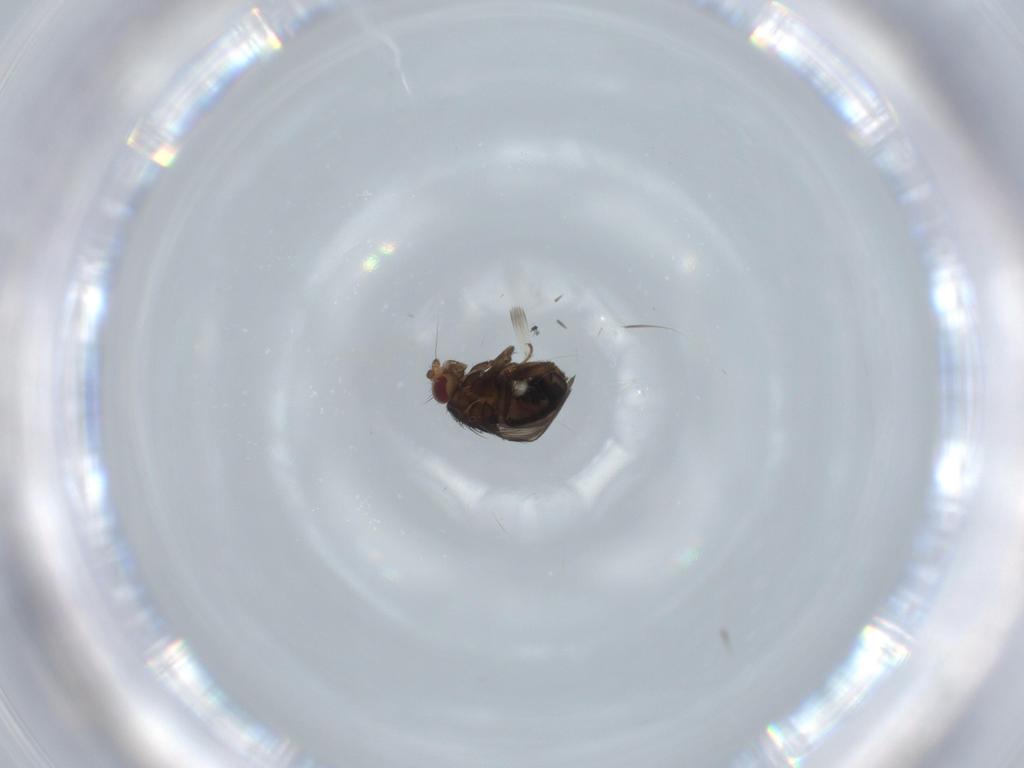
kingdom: Animalia
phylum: Arthropoda
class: Insecta
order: Diptera
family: Sphaeroceridae
